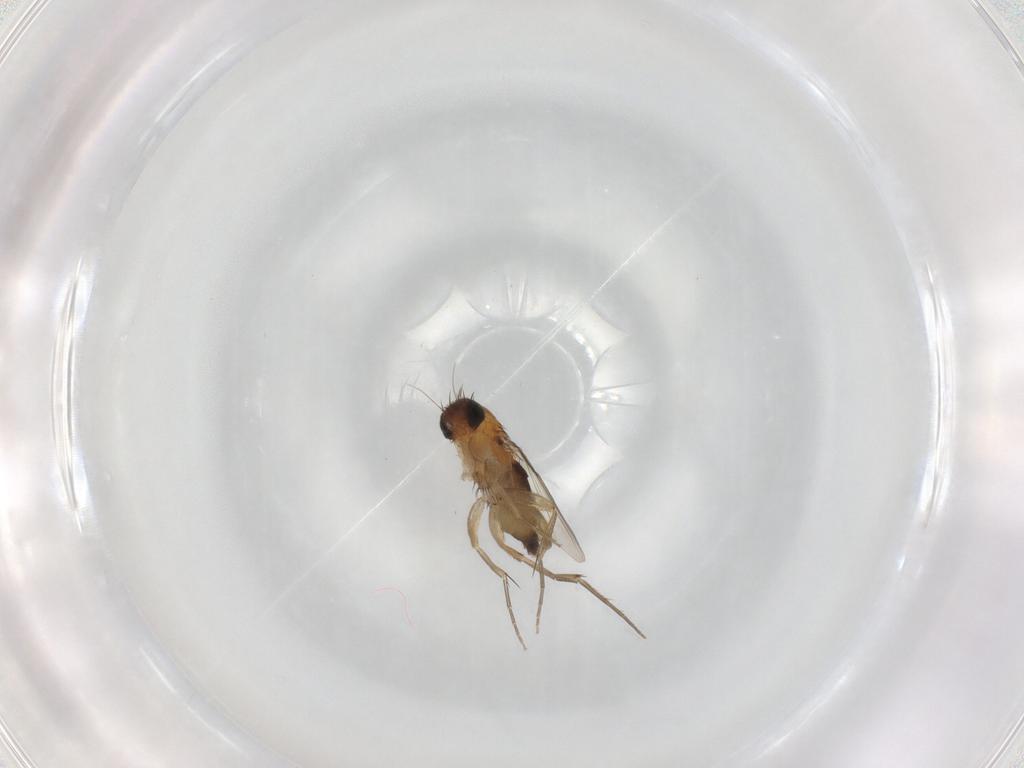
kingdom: Animalia
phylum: Arthropoda
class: Insecta
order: Diptera
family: Phoridae
